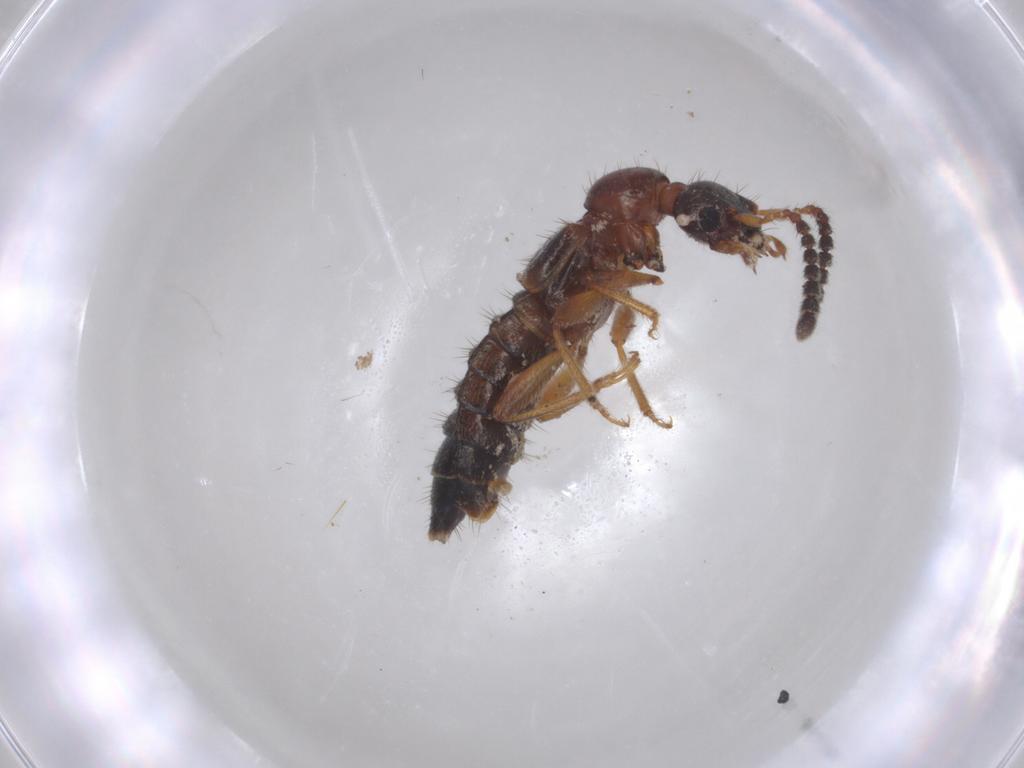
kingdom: Animalia
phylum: Arthropoda
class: Insecta
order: Coleoptera
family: Staphylinidae
